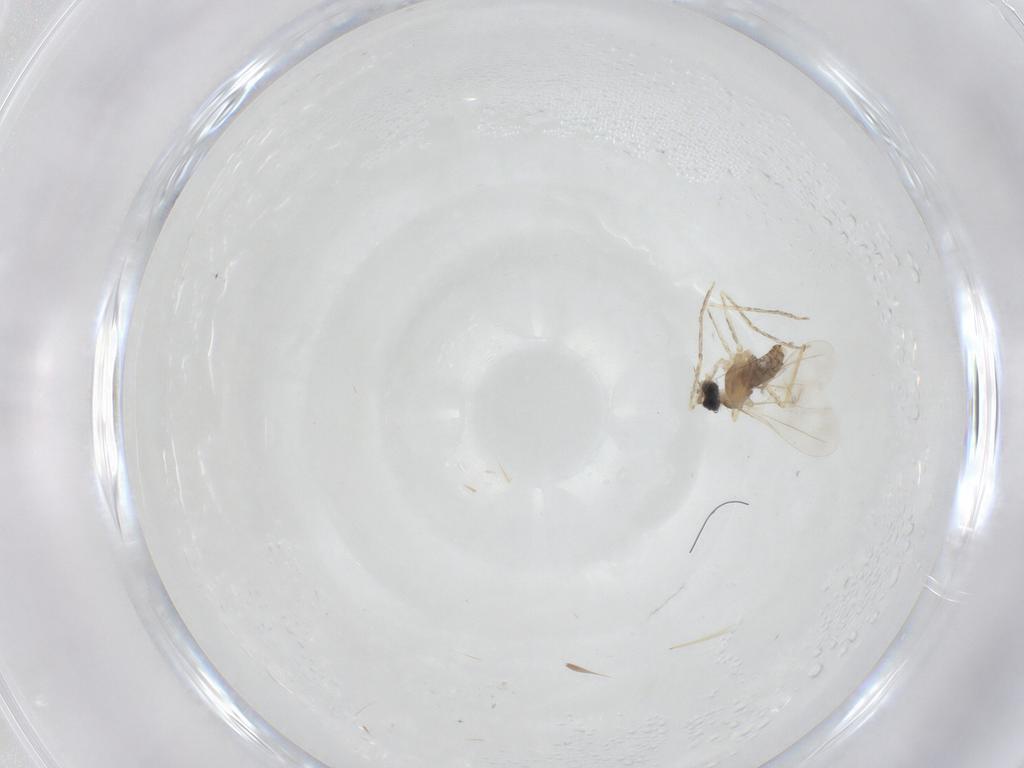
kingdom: Animalia
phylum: Arthropoda
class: Insecta
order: Diptera
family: Cecidomyiidae
